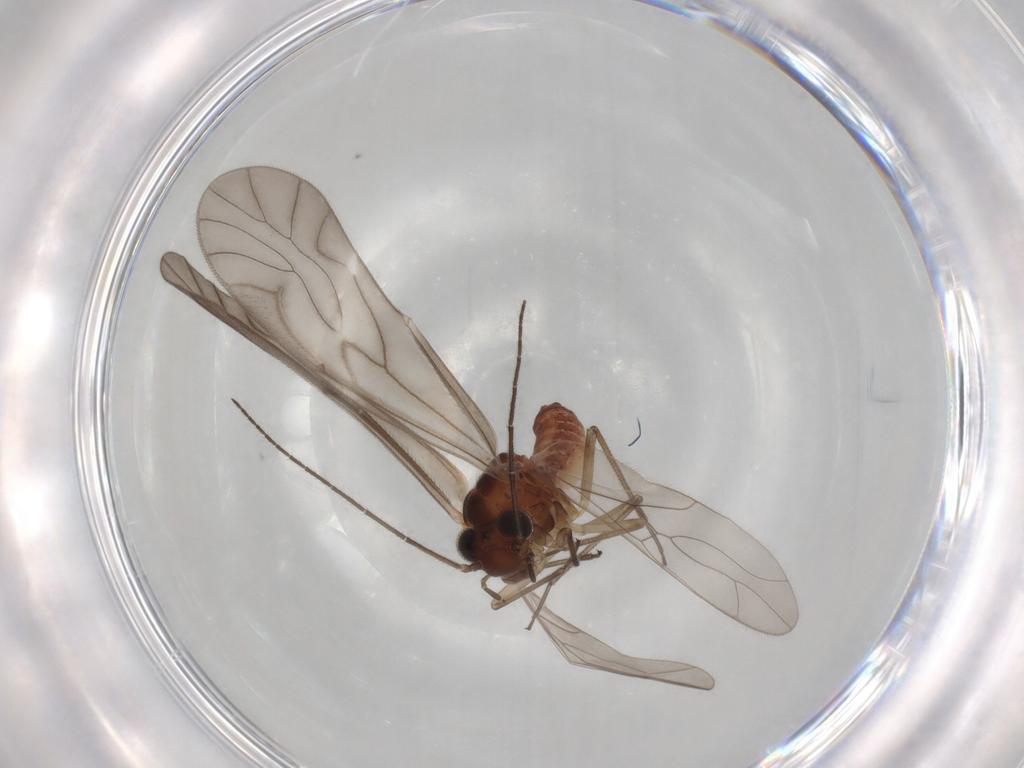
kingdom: Animalia
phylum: Arthropoda
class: Insecta
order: Psocodea
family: Caeciliusidae
